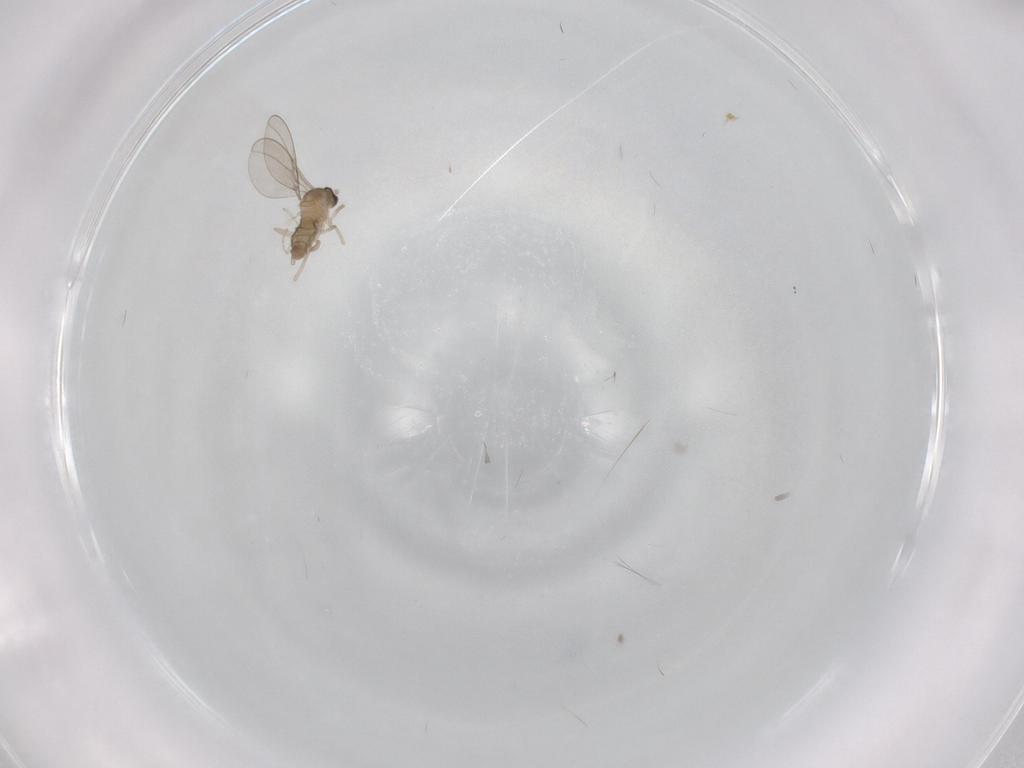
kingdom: Animalia
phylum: Arthropoda
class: Insecta
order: Diptera
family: Cecidomyiidae
